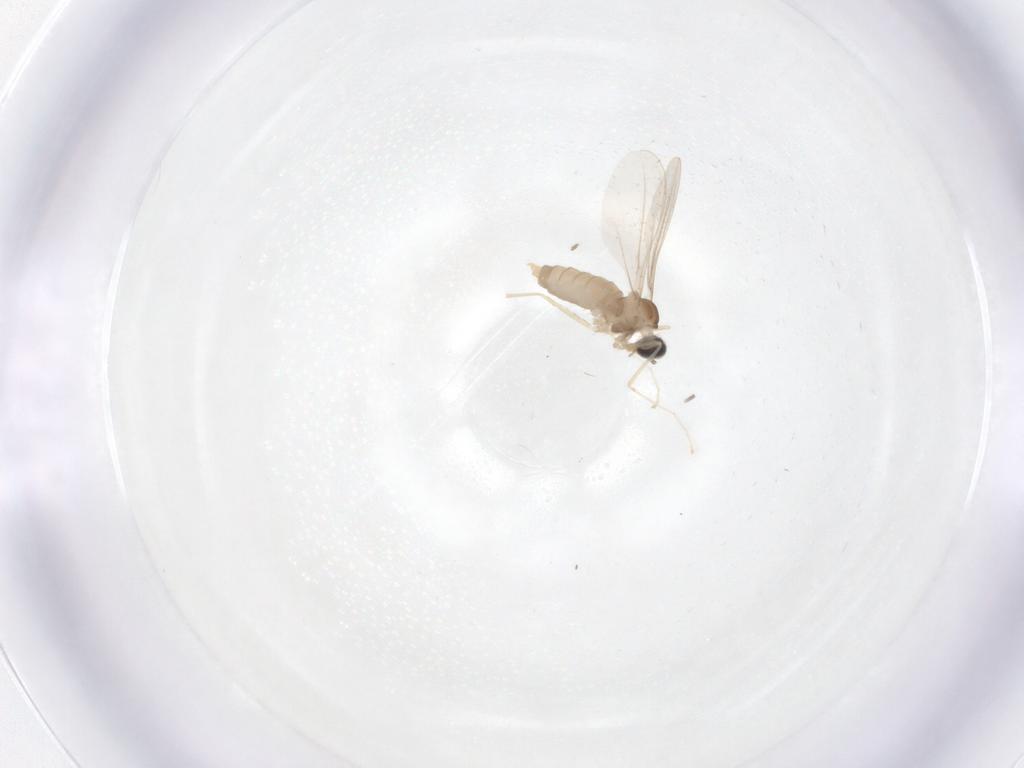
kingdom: Animalia
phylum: Arthropoda
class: Insecta
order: Diptera
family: Cecidomyiidae
